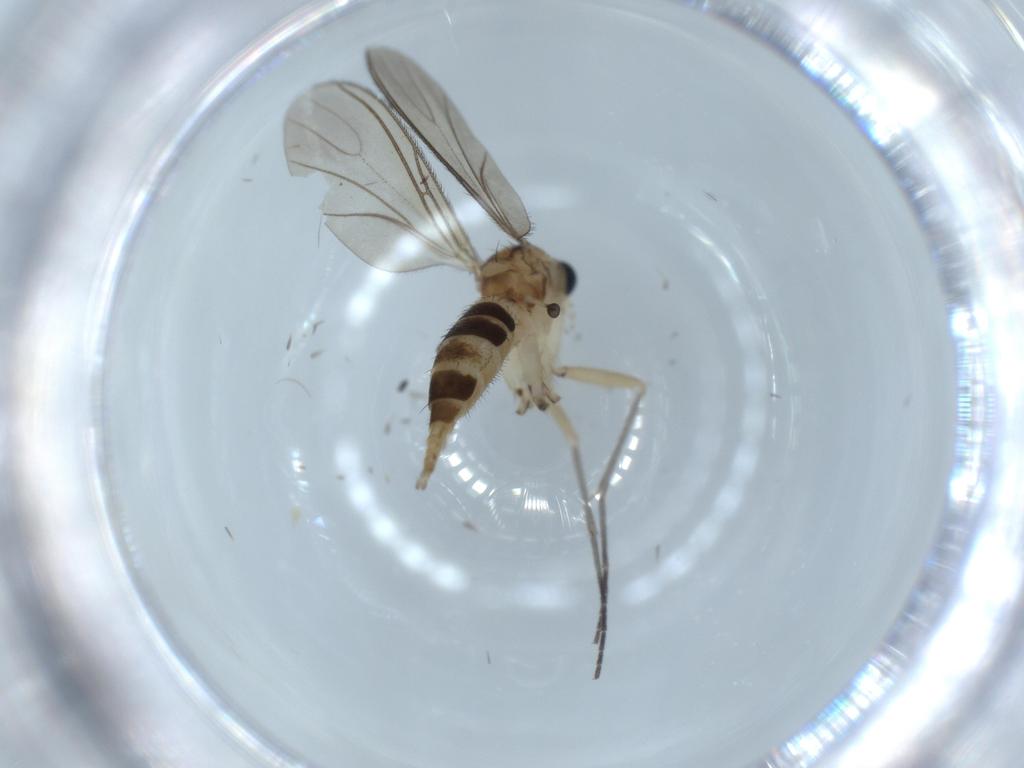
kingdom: Animalia
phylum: Arthropoda
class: Insecta
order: Diptera
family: Sciaridae
